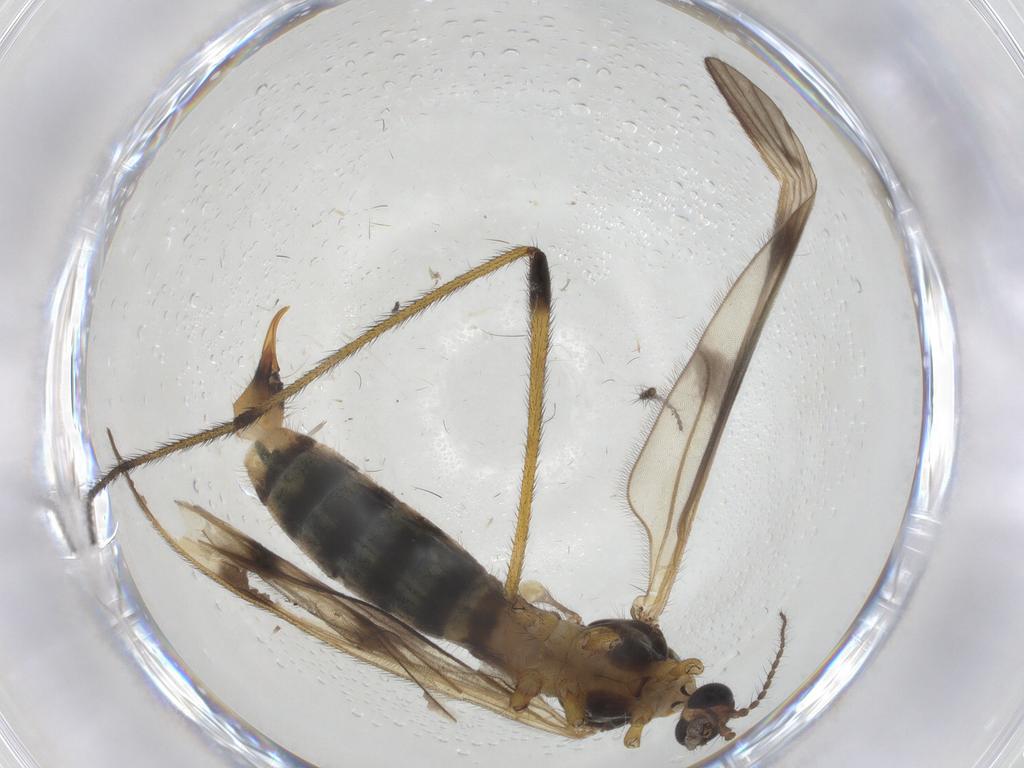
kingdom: Animalia
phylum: Arthropoda
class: Insecta
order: Diptera
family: Limoniidae
